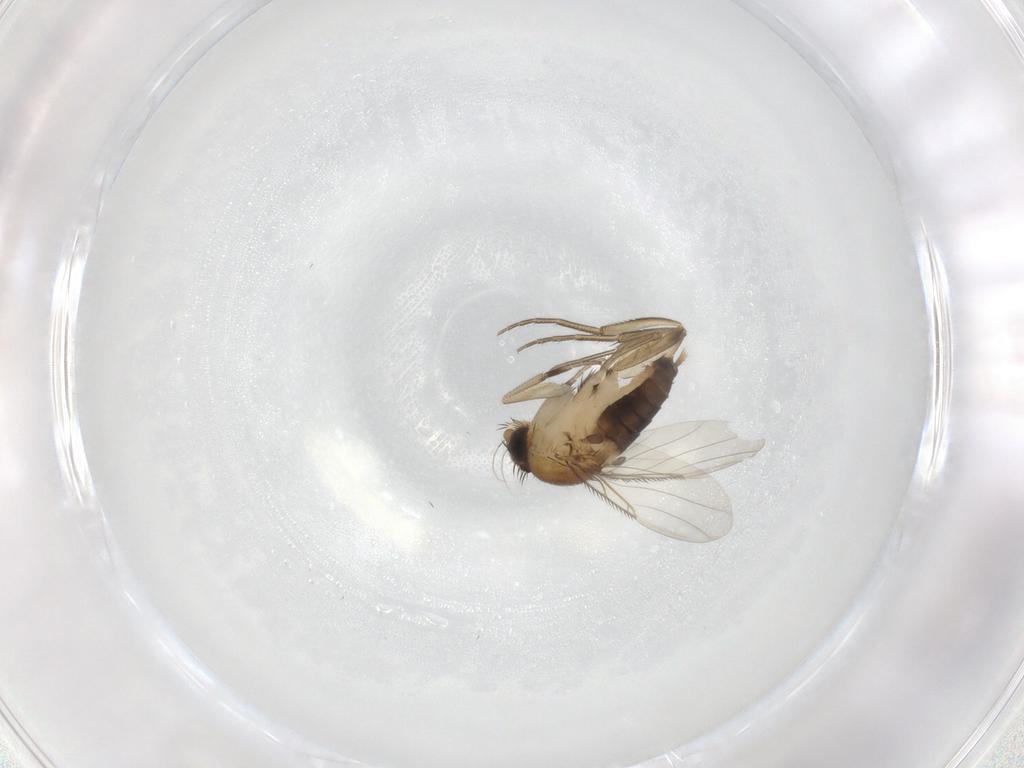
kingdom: Animalia
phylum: Arthropoda
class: Insecta
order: Diptera
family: Phoridae
